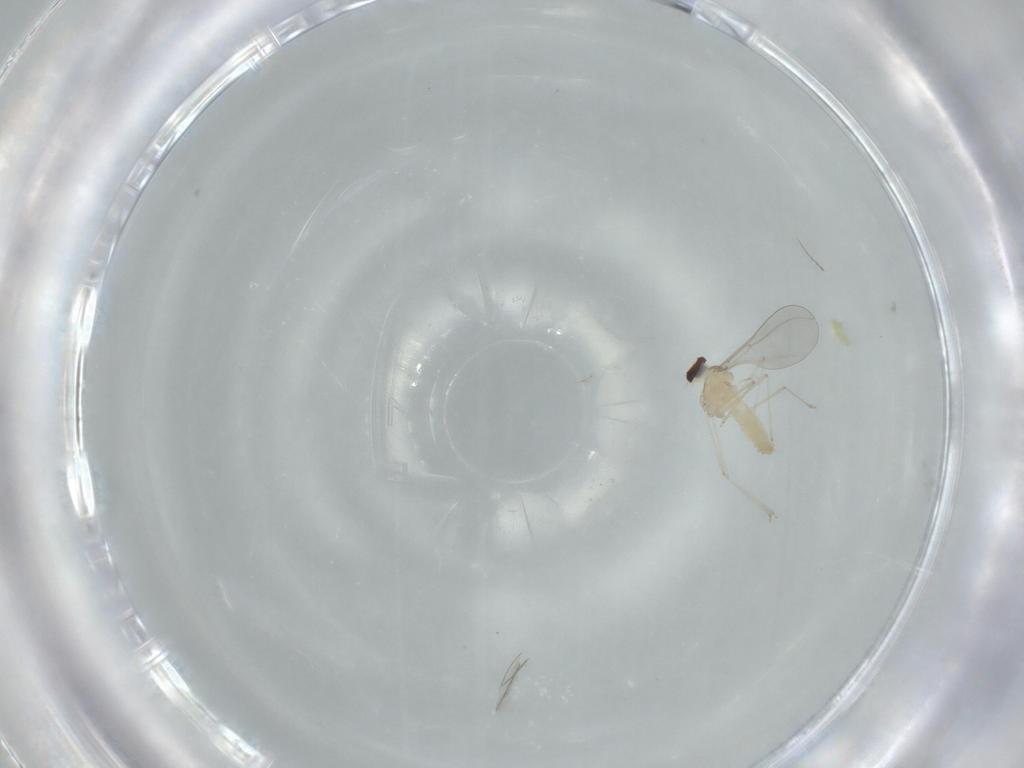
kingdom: Animalia
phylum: Arthropoda
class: Insecta
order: Diptera
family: Cecidomyiidae
